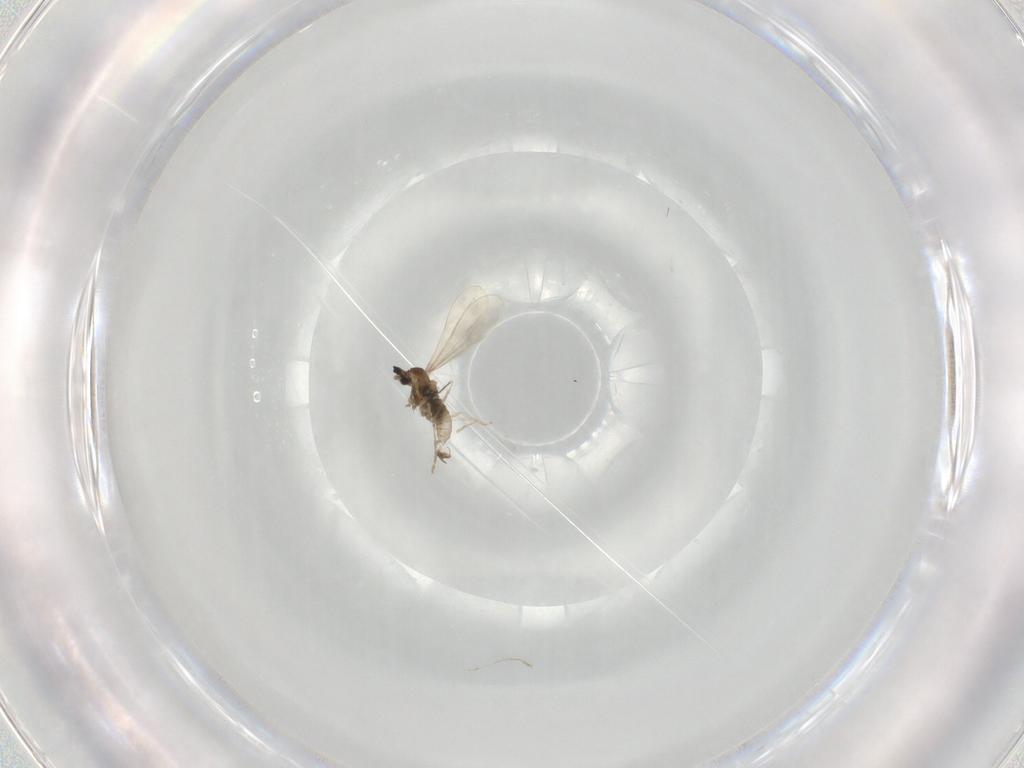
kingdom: Animalia
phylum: Arthropoda
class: Insecta
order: Diptera
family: Cecidomyiidae
